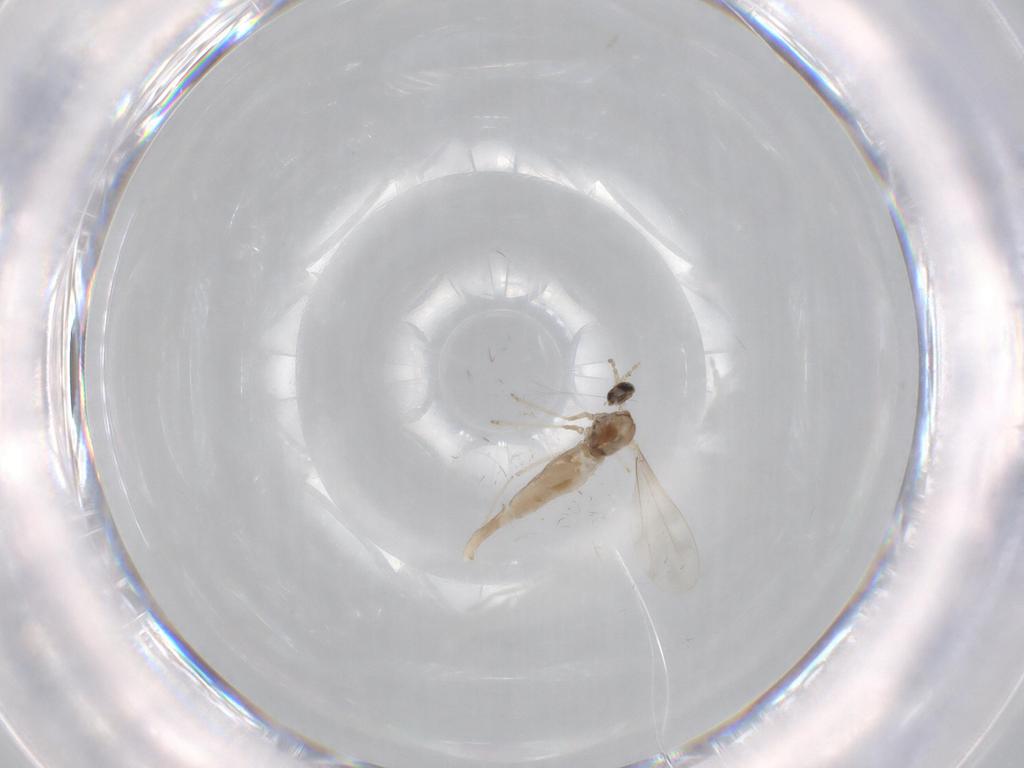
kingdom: Animalia
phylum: Arthropoda
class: Insecta
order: Diptera
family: Cecidomyiidae
